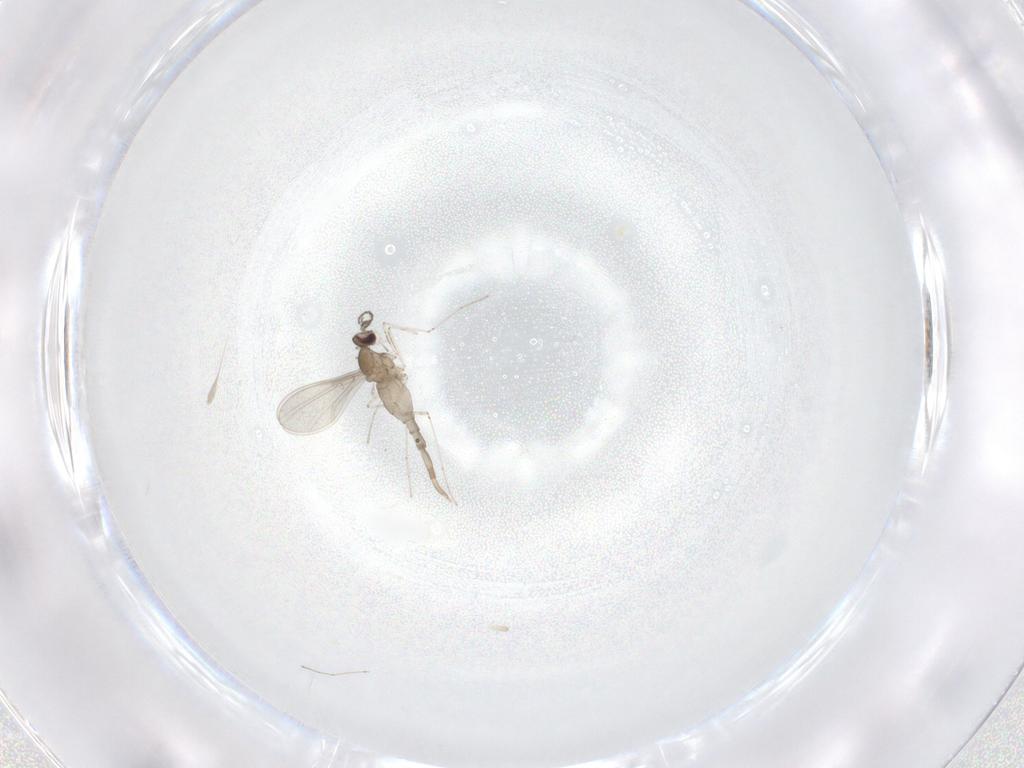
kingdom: Animalia
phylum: Arthropoda
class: Insecta
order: Diptera
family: Cecidomyiidae
